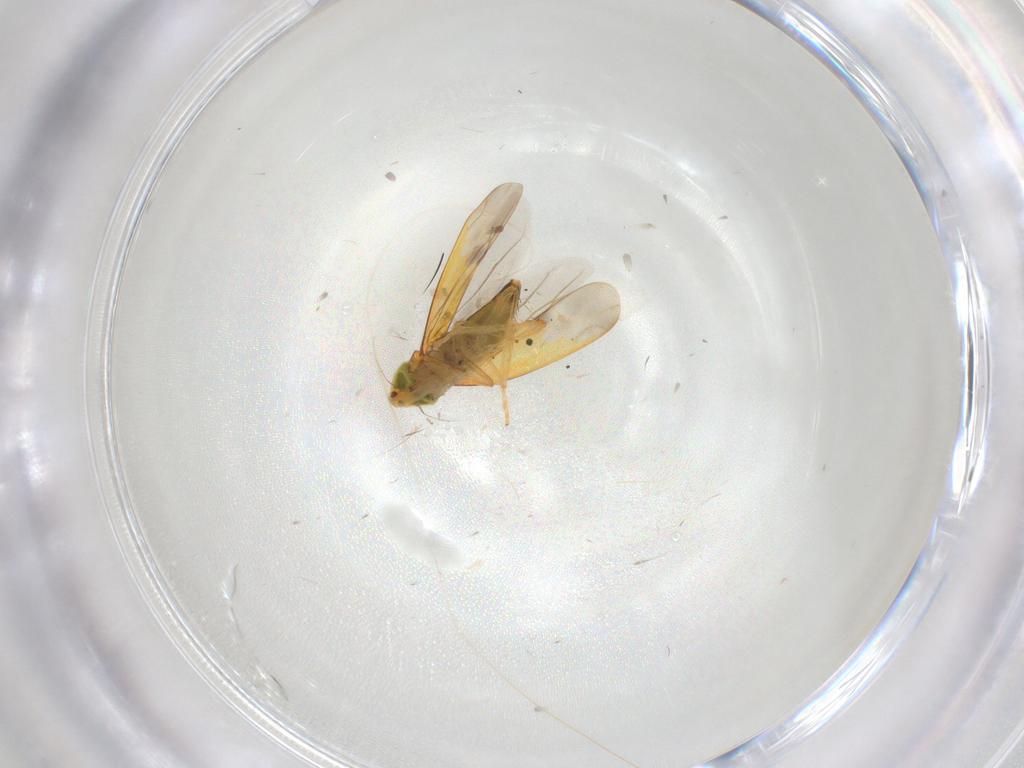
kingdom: Animalia
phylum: Arthropoda
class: Insecta
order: Hemiptera
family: Cicadellidae
